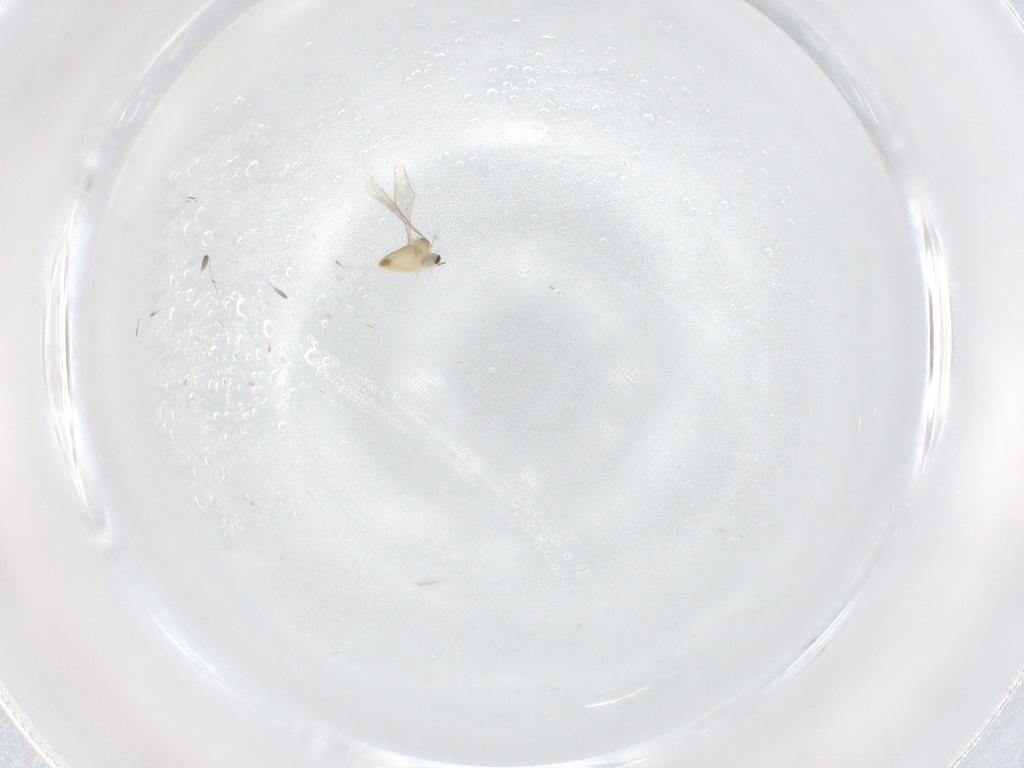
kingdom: Animalia
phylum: Arthropoda
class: Insecta
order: Diptera
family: Cecidomyiidae
